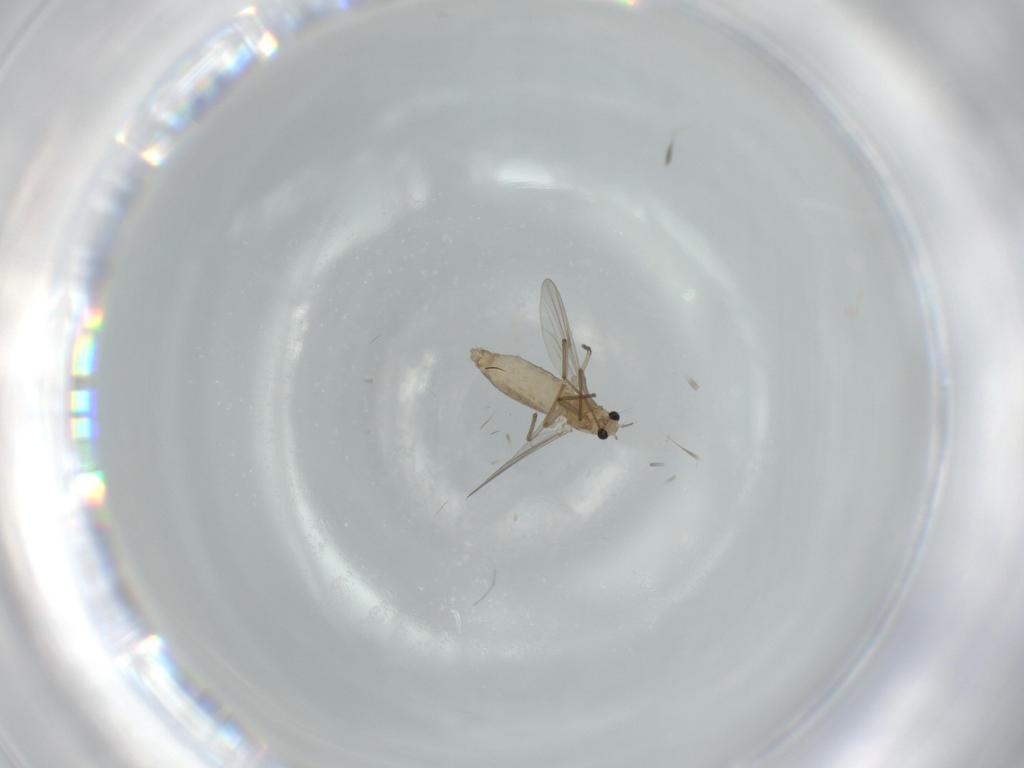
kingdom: Animalia
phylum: Arthropoda
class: Insecta
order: Diptera
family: Chironomidae
